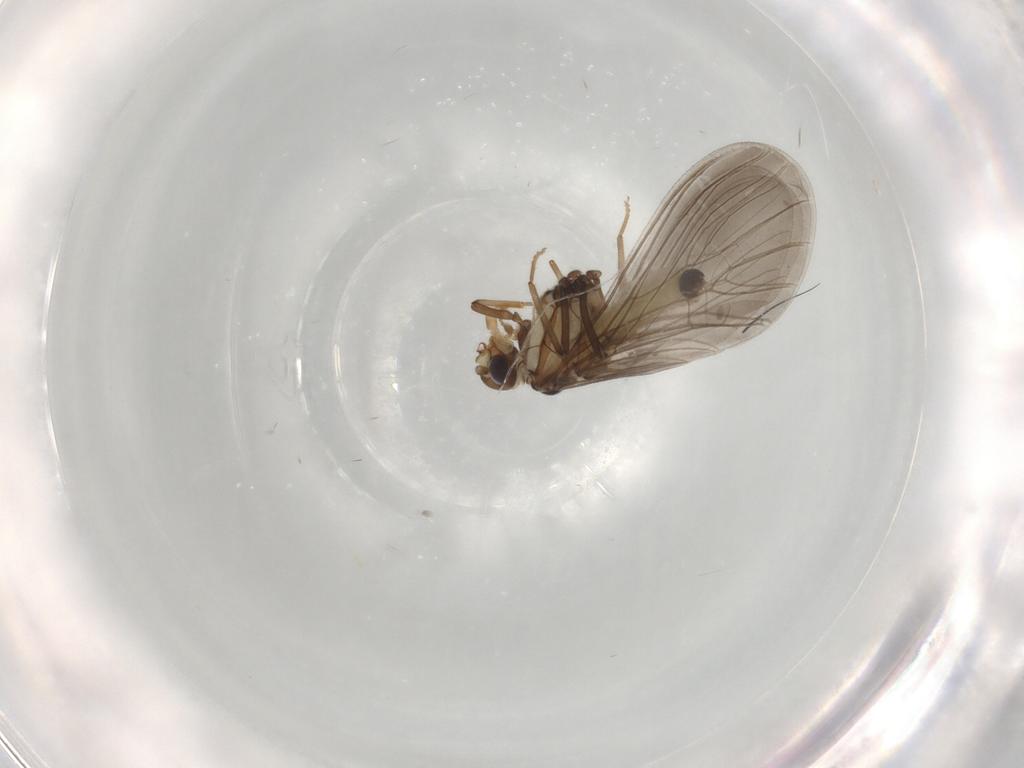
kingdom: Animalia
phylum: Arthropoda
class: Insecta
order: Neuroptera
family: Coniopterygidae
